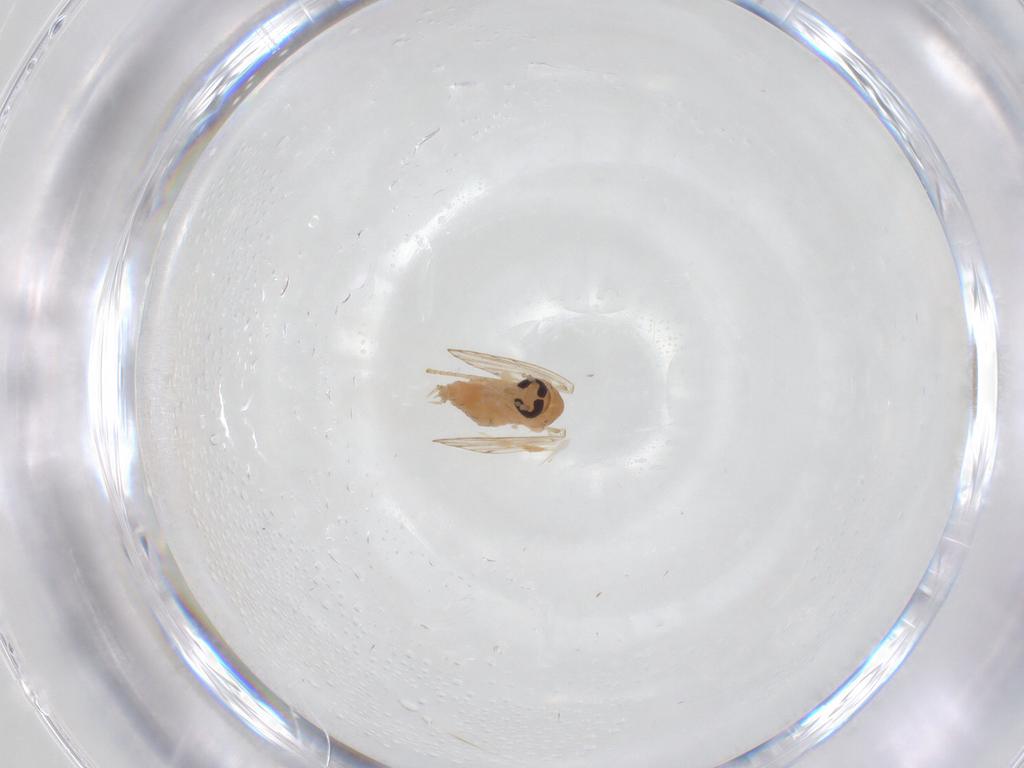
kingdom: Animalia
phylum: Arthropoda
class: Insecta
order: Diptera
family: Psychodidae
